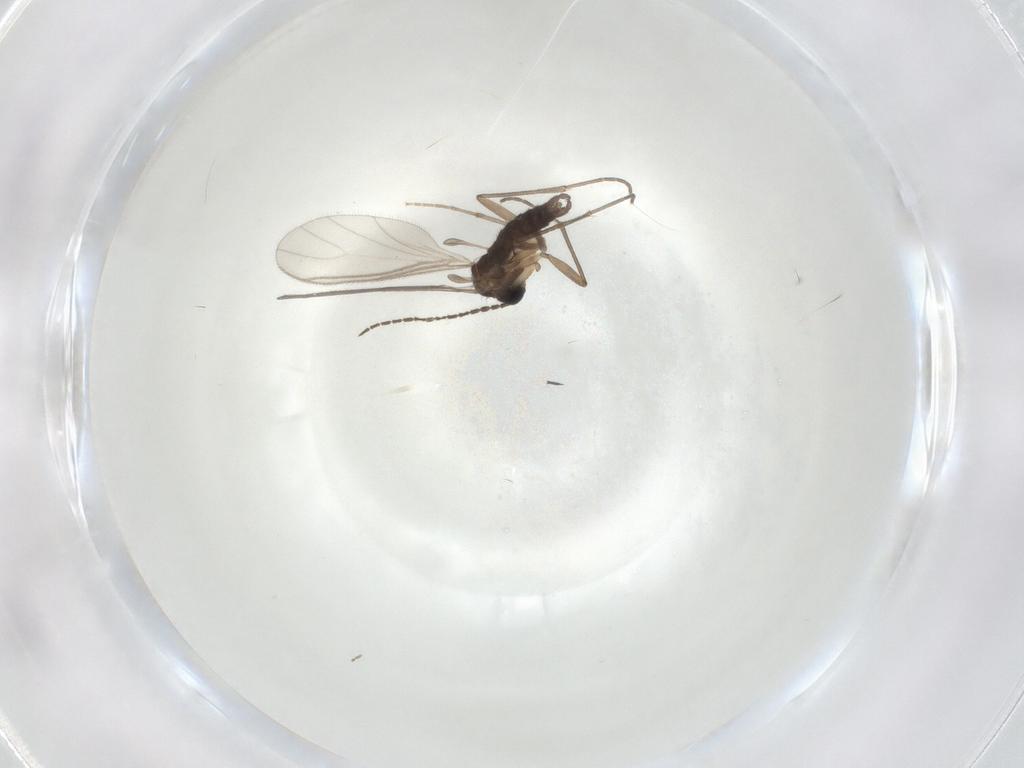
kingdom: Animalia
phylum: Arthropoda
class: Insecta
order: Diptera
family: Sciaridae
